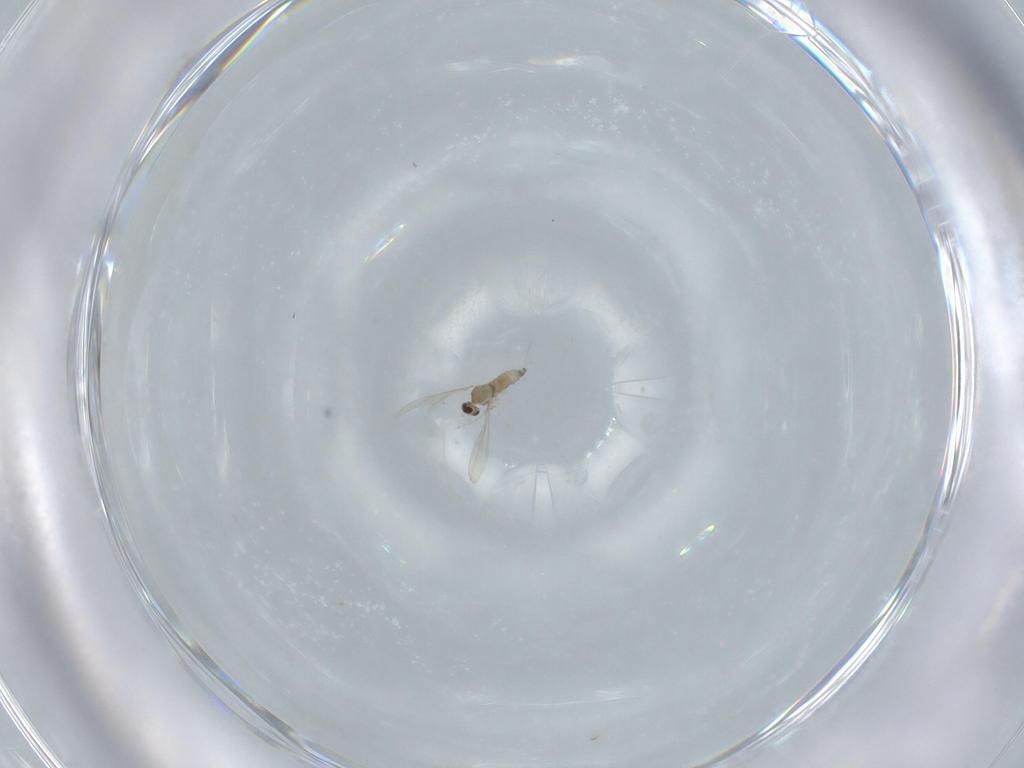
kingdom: Animalia
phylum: Arthropoda
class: Insecta
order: Diptera
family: Cecidomyiidae
